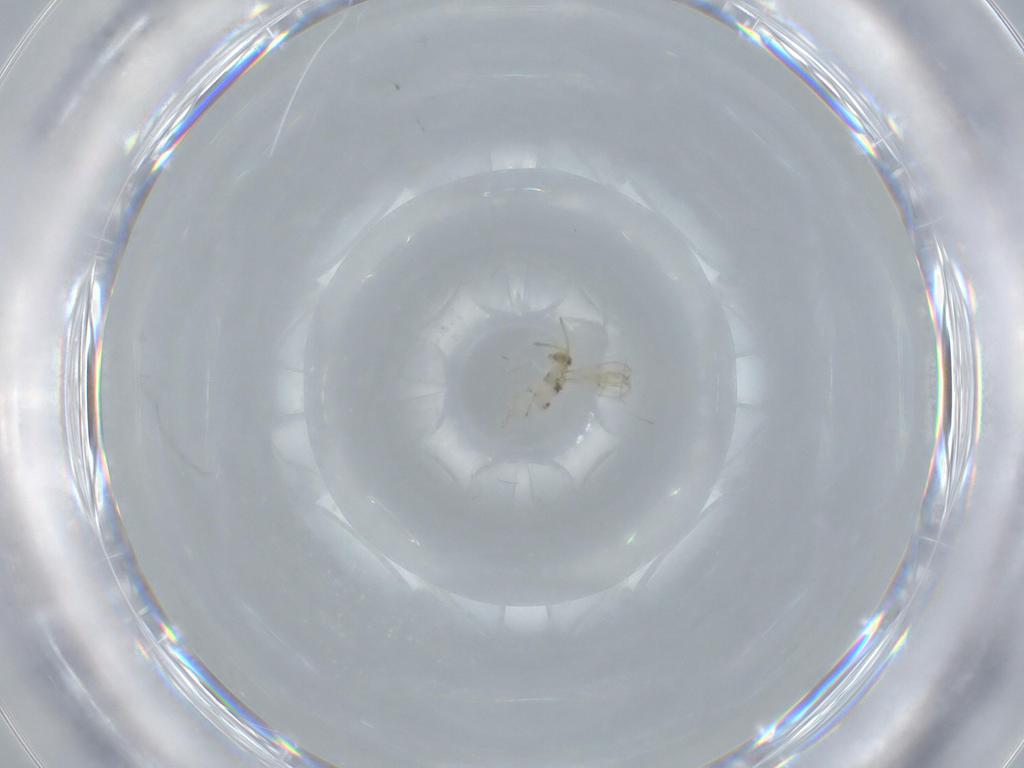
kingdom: Animalia
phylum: Arthropoda
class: Insecta
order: Hymenoptera
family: Aphelinidae
